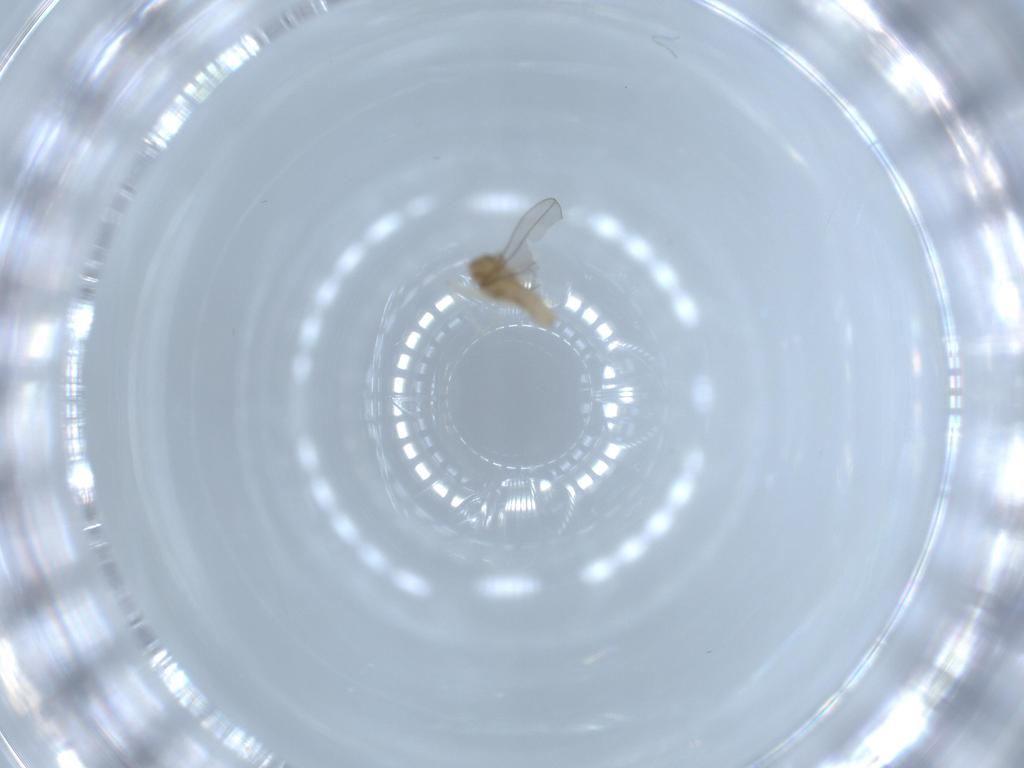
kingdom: Animalia
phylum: Arthropoda
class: Insecta
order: Diptera
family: Cecidomyiidae
